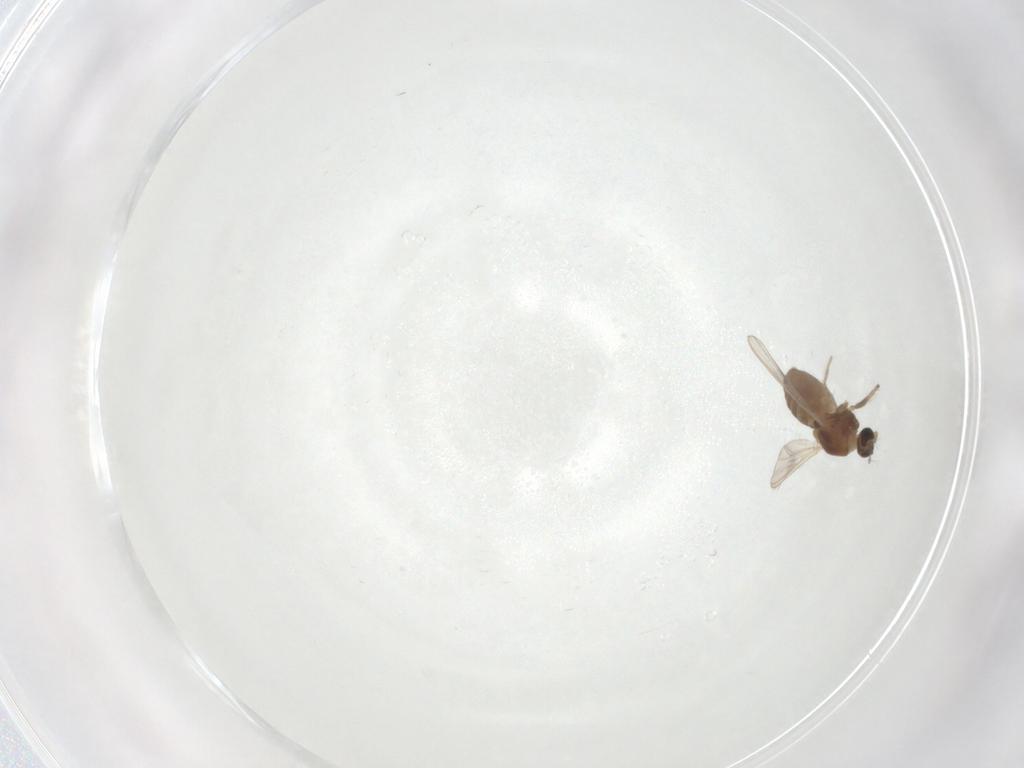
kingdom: Animalia
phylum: Arthropoda
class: Insecta
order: Diptera
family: Chironomidae
